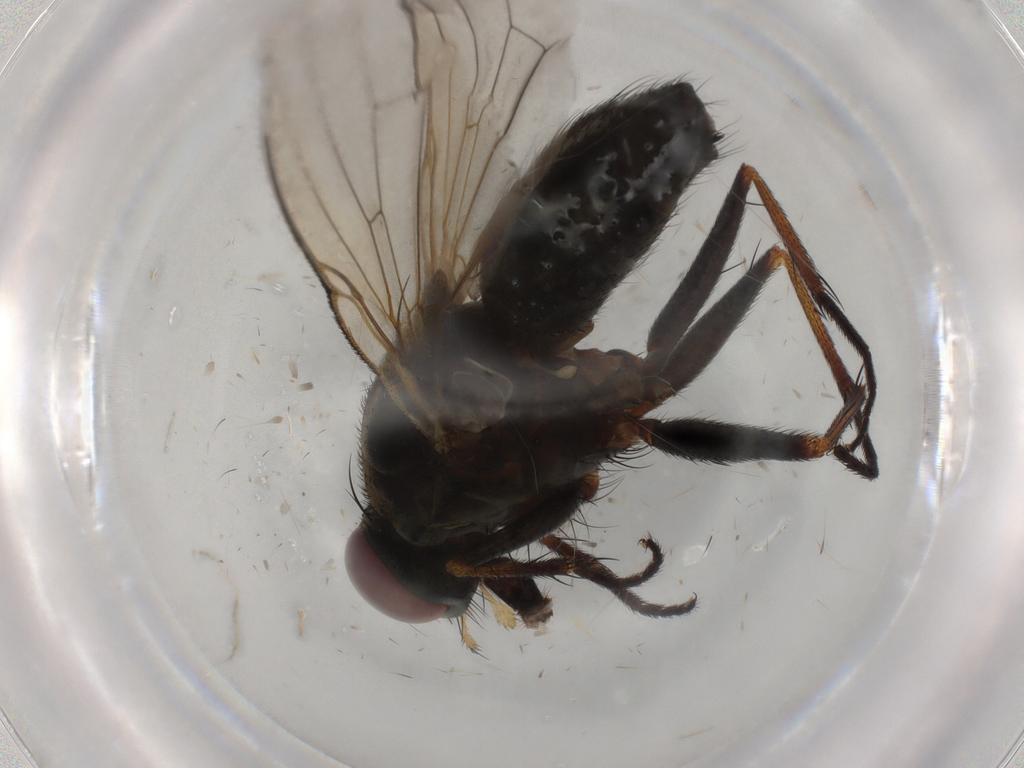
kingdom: Animalia
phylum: Arthropoda
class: Insecta
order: Diptera
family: Muscidae
